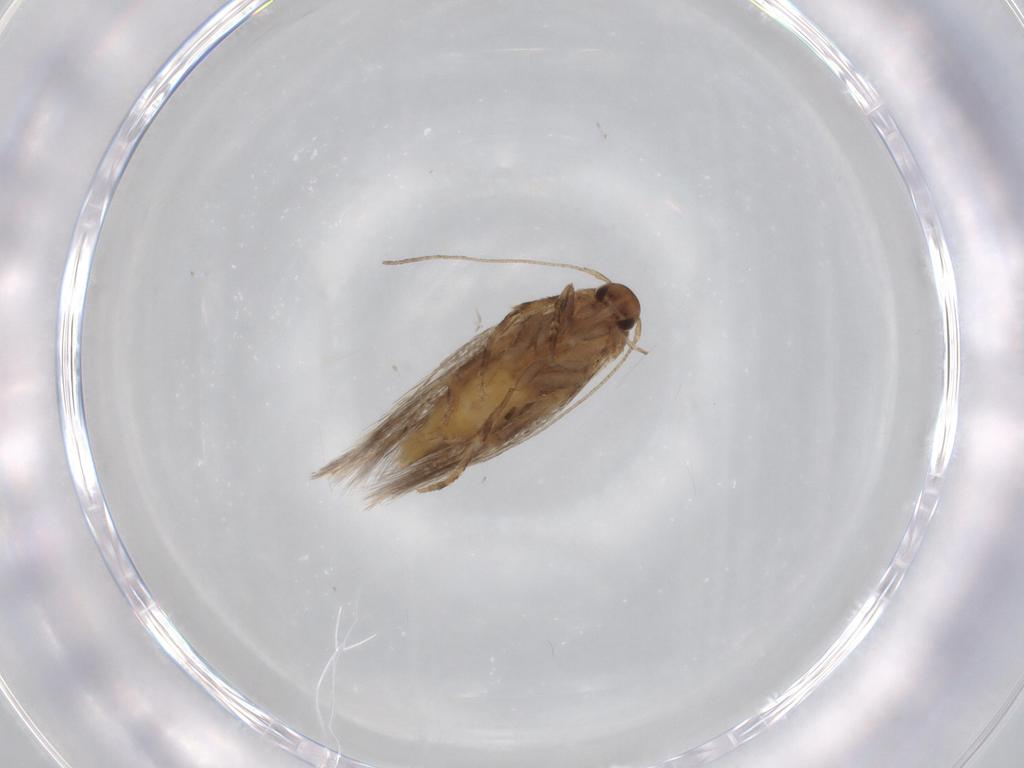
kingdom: Animalia
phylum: Arthropoda
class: Insecta
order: Lepidoptera
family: Elachistidae
